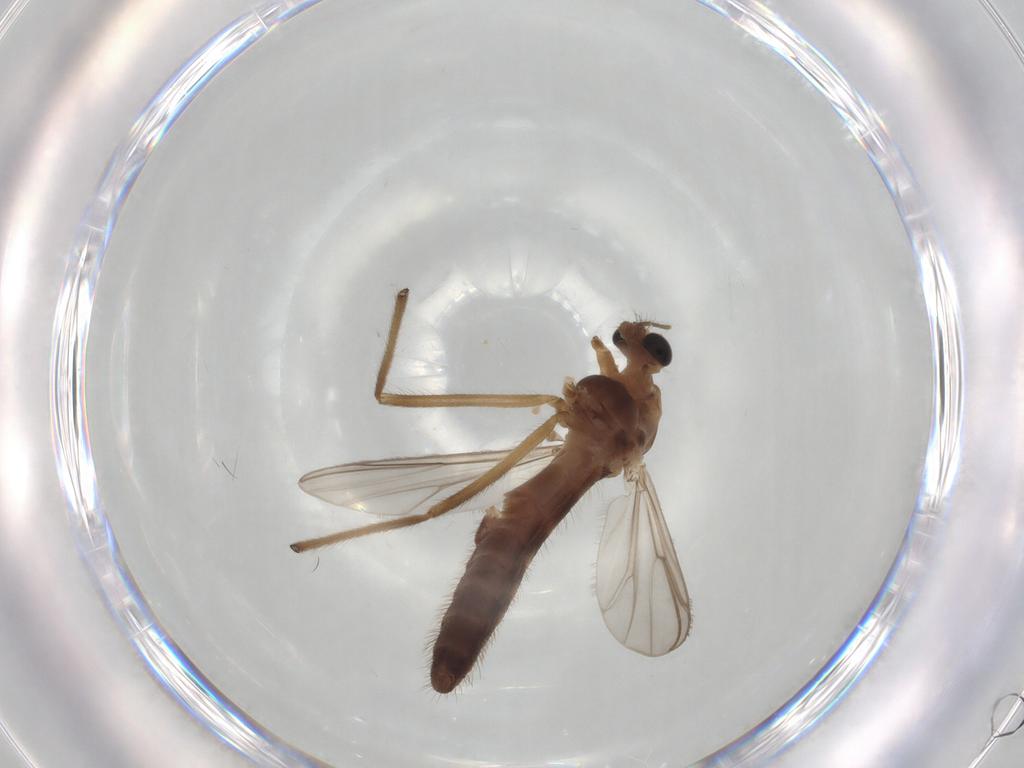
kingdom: Animalia
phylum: Arthropoda
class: Insecta
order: Diptera
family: Chironomidae
